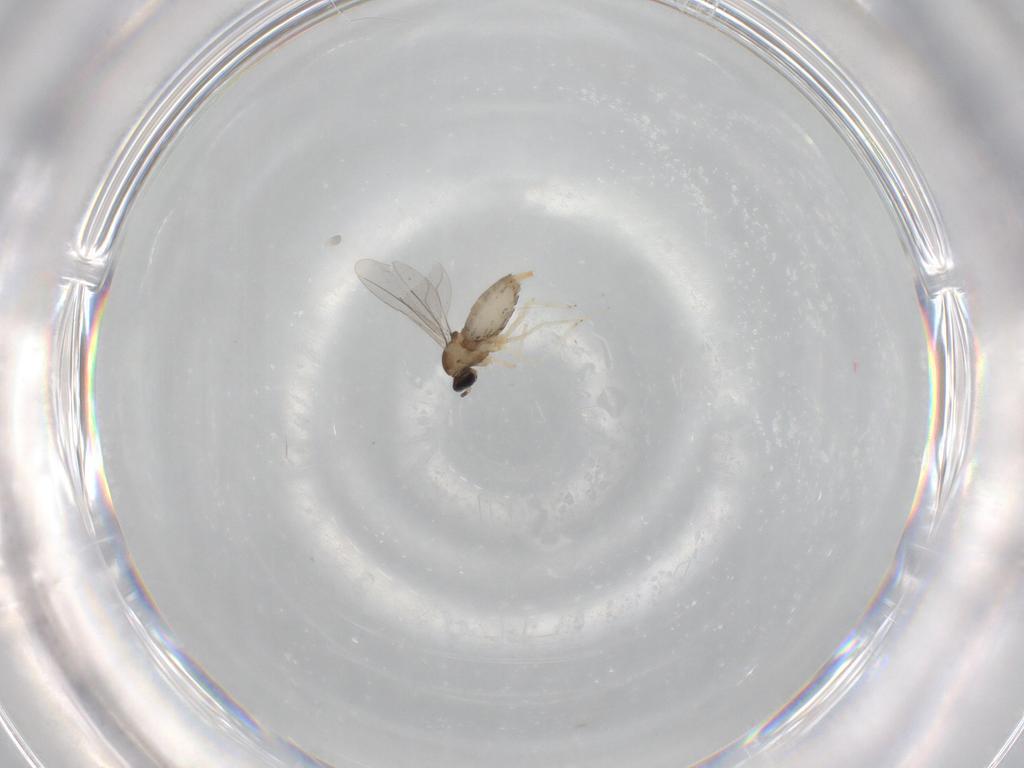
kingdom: Animalia
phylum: Arthropoda
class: Insecta
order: Diptera
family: Cecidomyiidae
